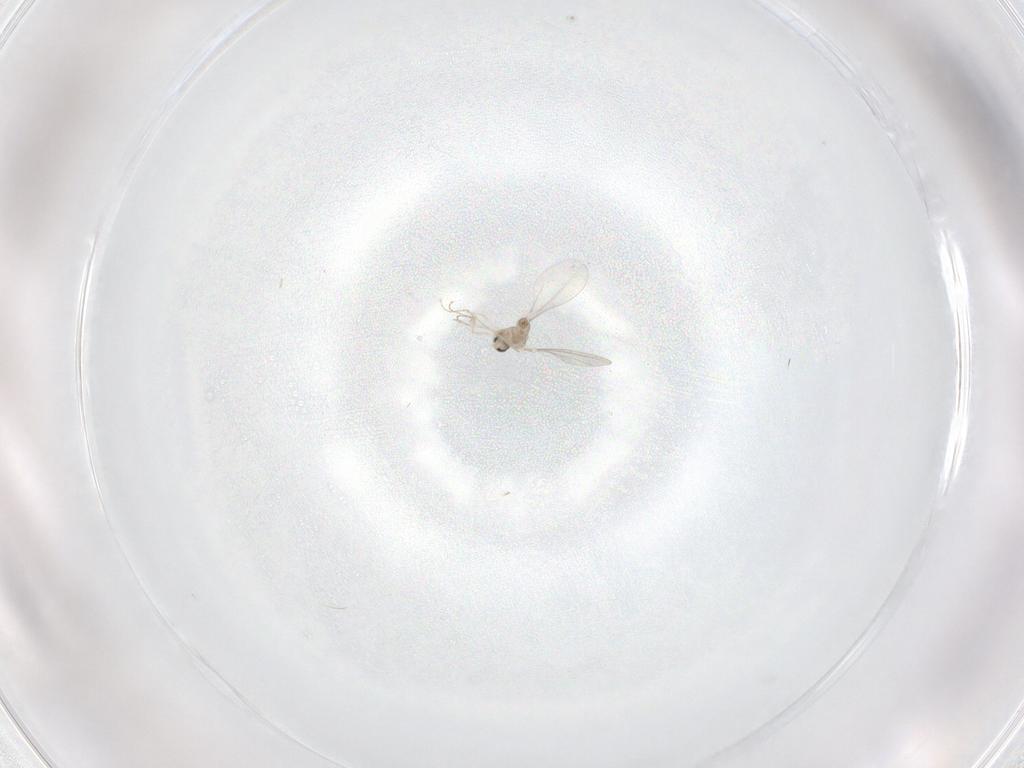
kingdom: Animalia
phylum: Arthropoda
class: Insecta
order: Diptera
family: Cecidomyiidae
